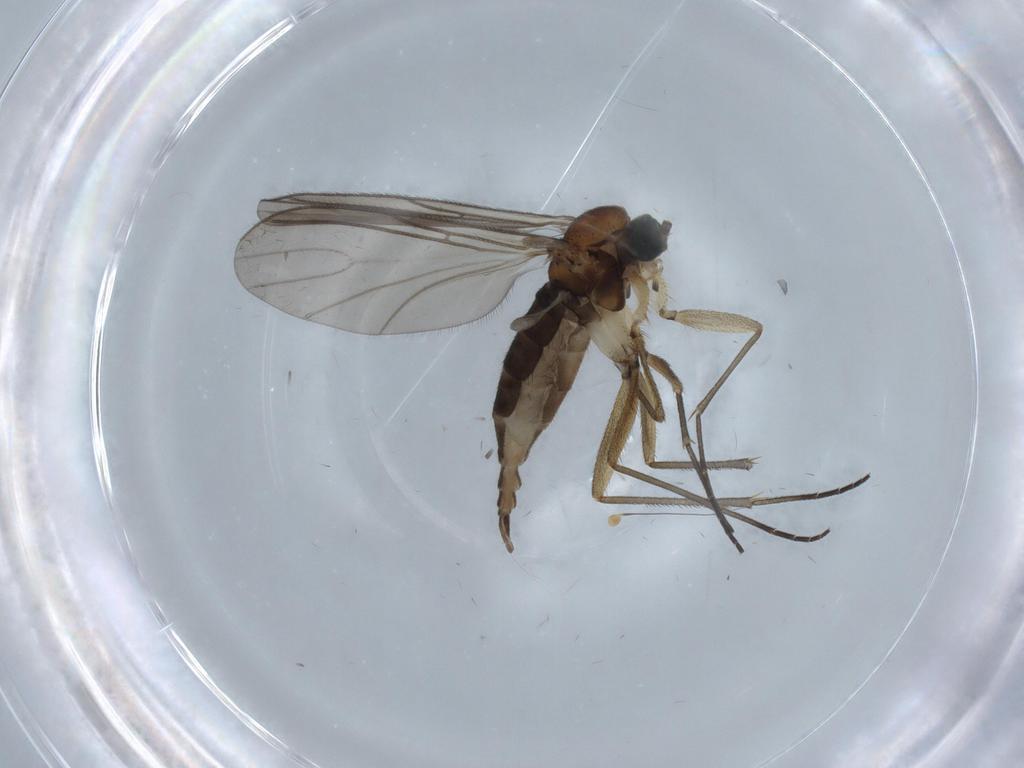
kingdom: Animalia
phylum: Arthropoda
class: Insecta
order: Diptera
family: Sciaridae
